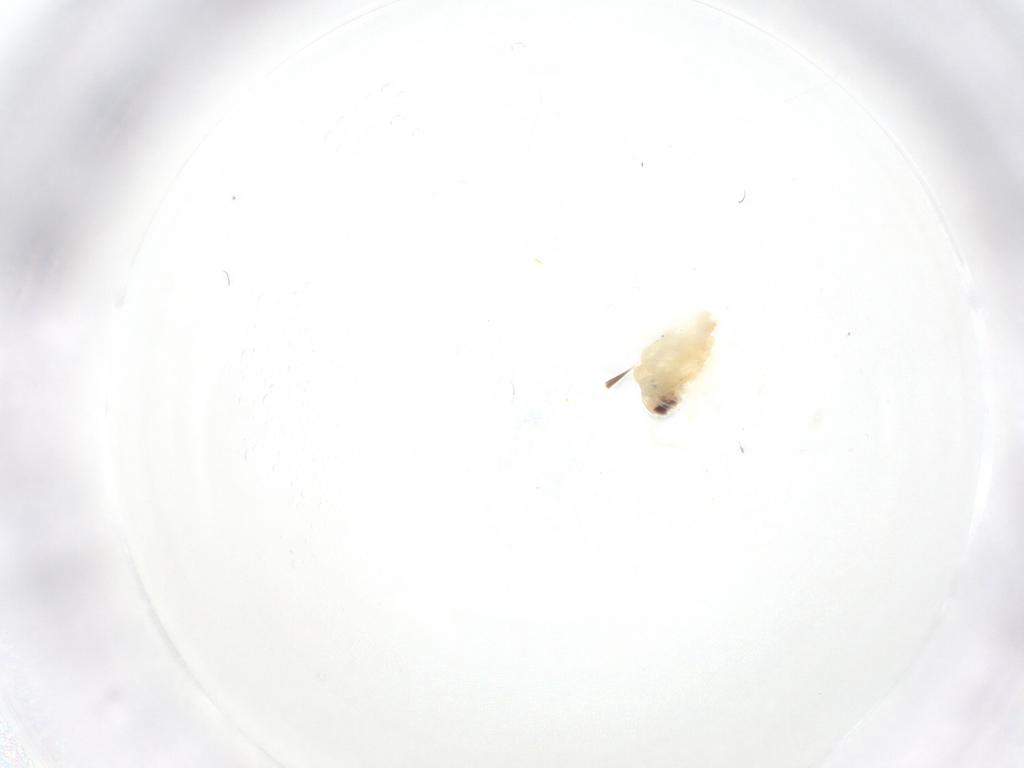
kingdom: Animalia
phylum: Arthropoda
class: Insecta
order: Hemiptera
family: Cicadellidae
